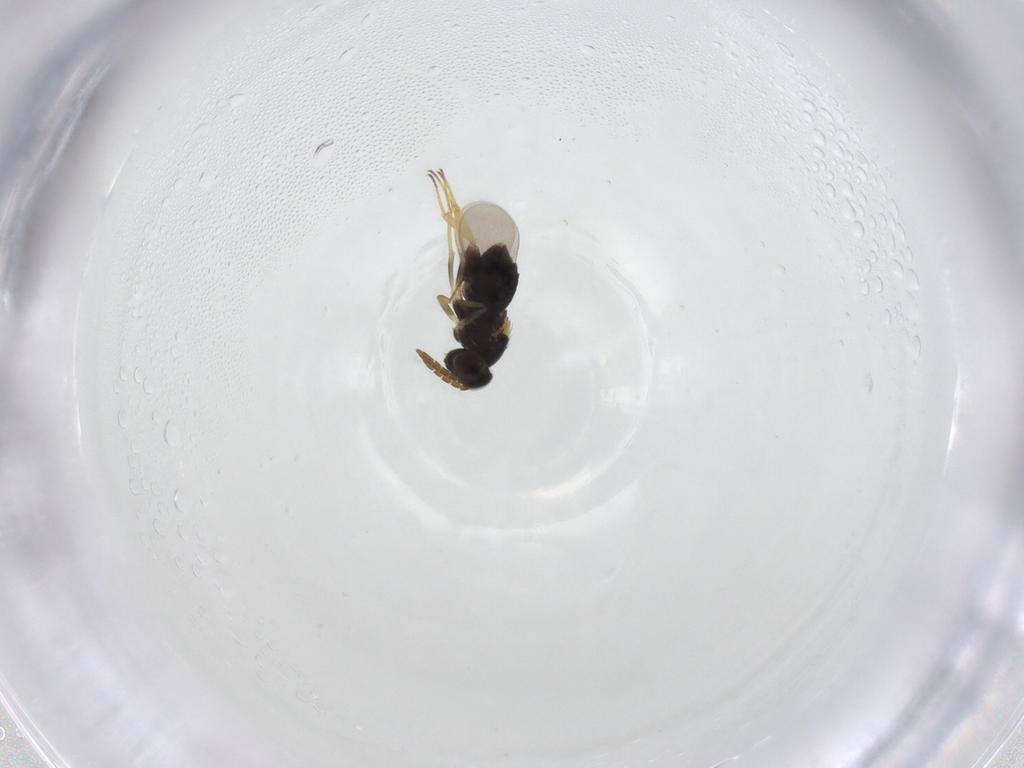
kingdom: Animalia
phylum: Arthropoda
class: Insecta
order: Hymenoptera
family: Aphelinidae
